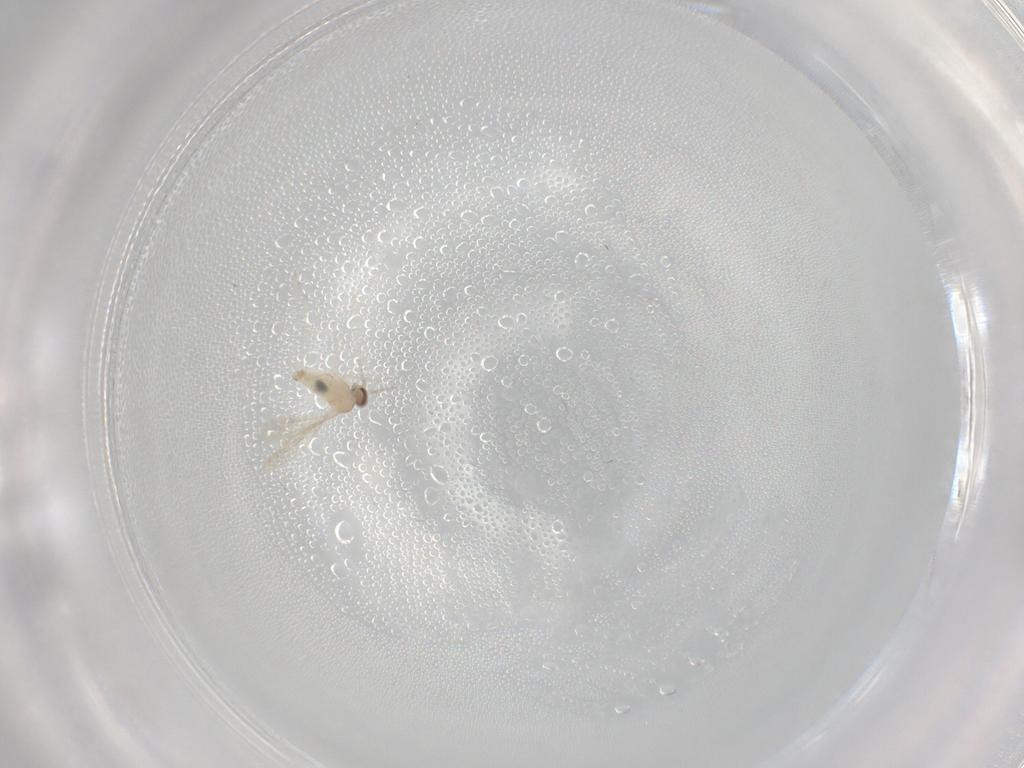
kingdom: Animalia
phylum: Arthropoda
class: Insecta
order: Diptera
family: Cecidomyiidae
